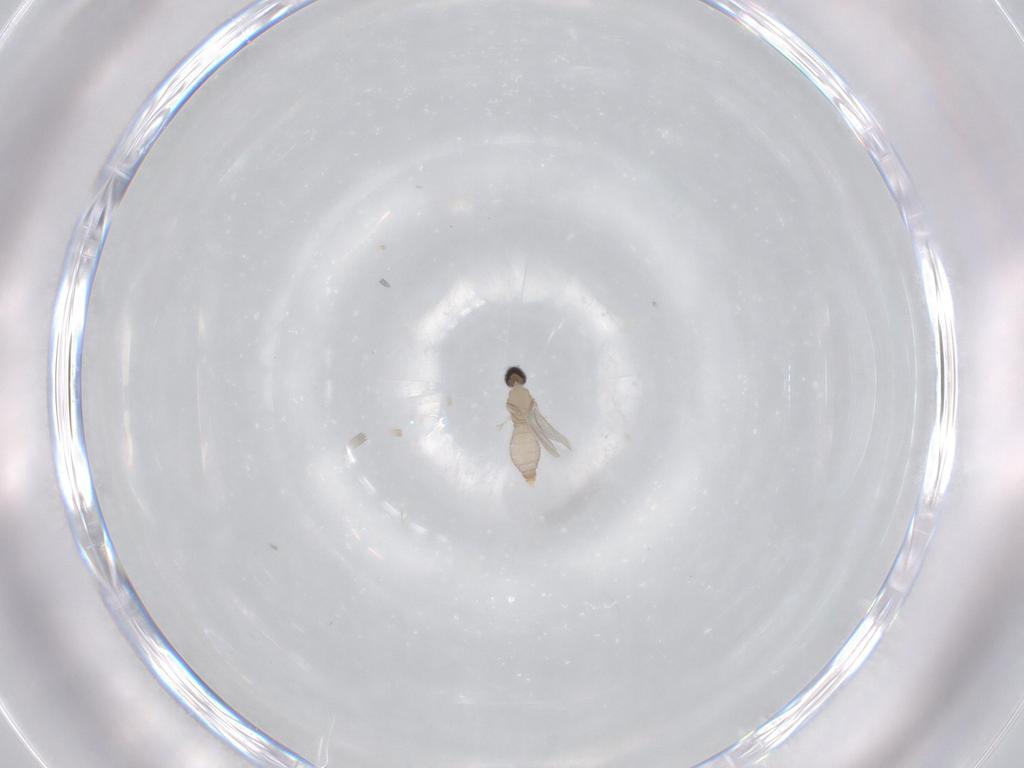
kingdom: Animalia
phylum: Arthropoda
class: Insecta
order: Diptera
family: Cecidomyiidae
